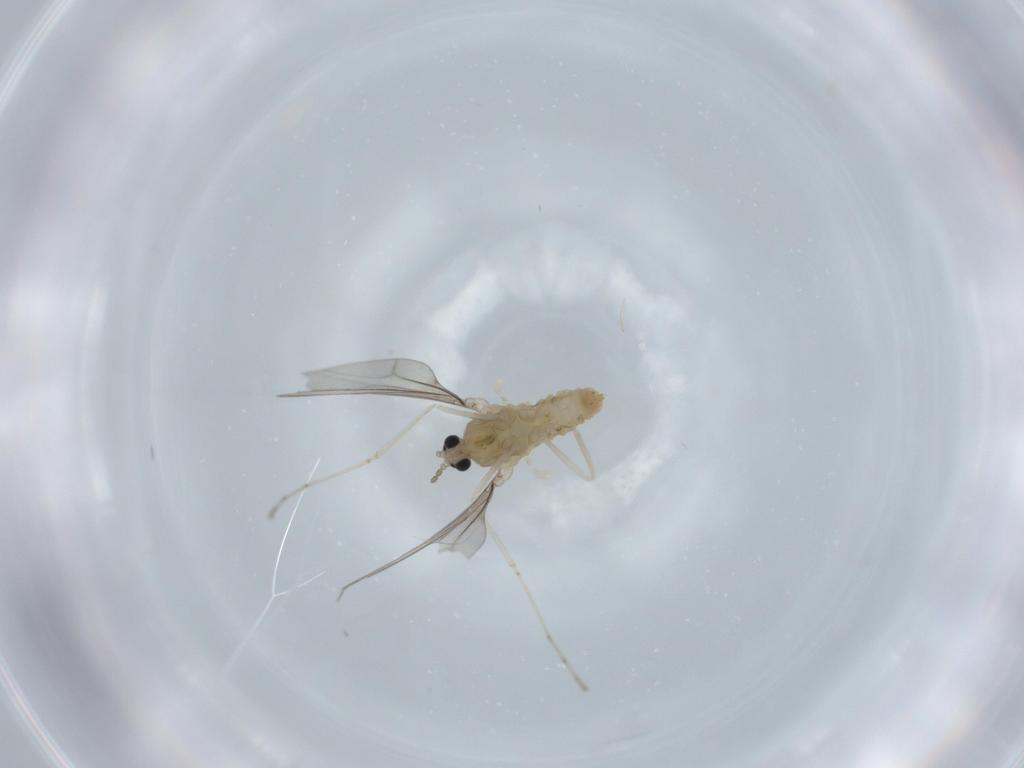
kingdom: Animalia
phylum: Arthropoda
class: Insecta
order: Diptera
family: Cecidomyiidae
